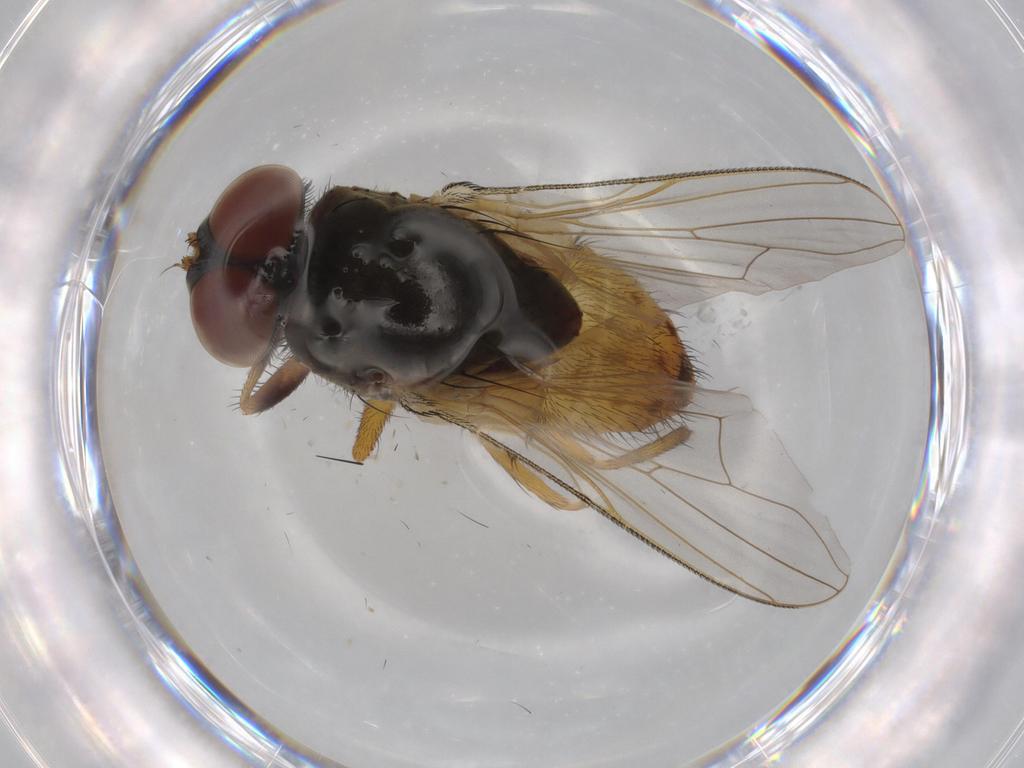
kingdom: Animalia
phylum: Arthropoda
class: Insecta
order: Diptera
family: Muscidae
